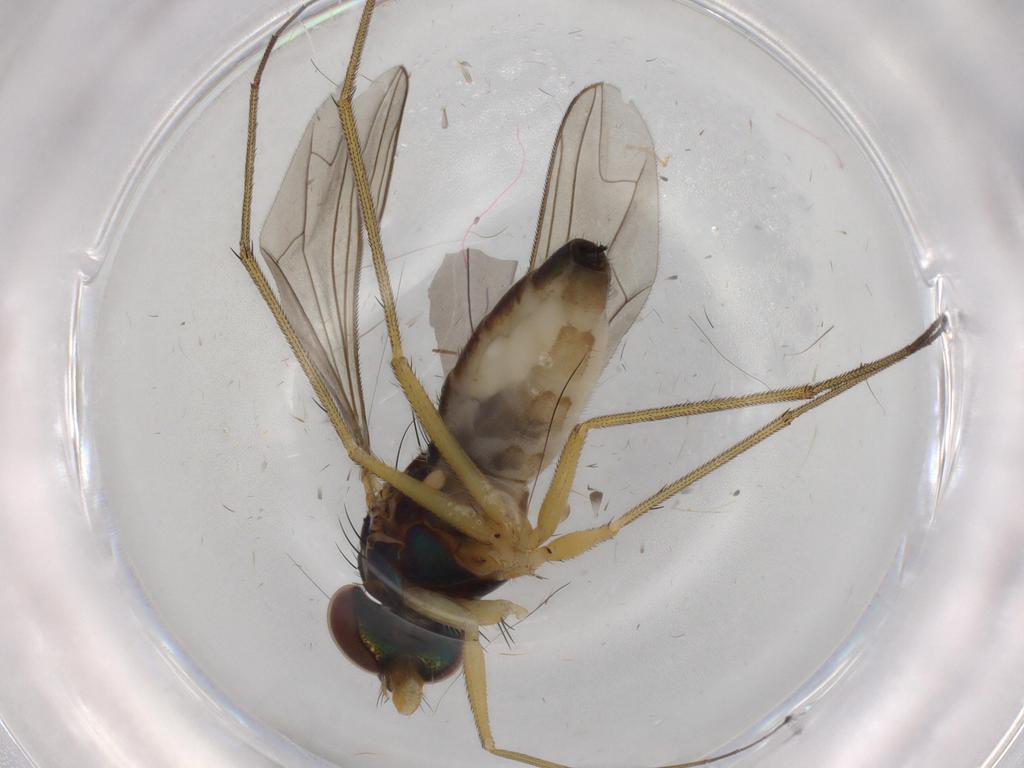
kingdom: Animalia
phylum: Arthropoda
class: Insecta
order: Diptera
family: Dolichopodidae
